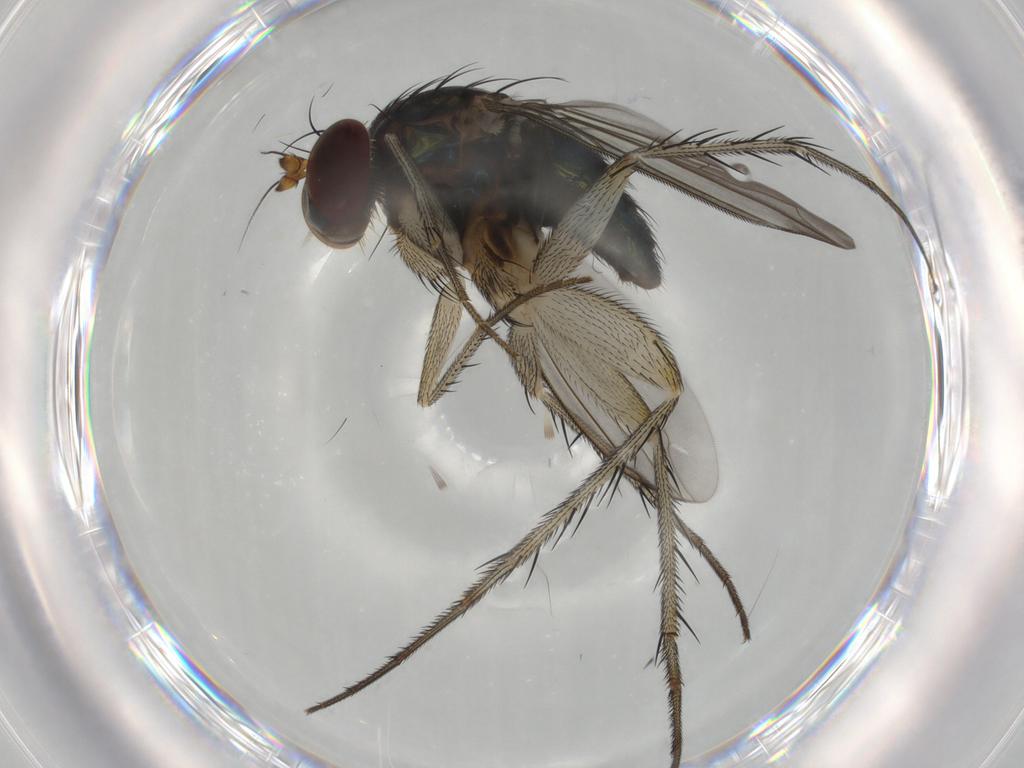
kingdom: Animalia
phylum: Arthropoda
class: Insecta
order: Diptera
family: Dolichopodidae
